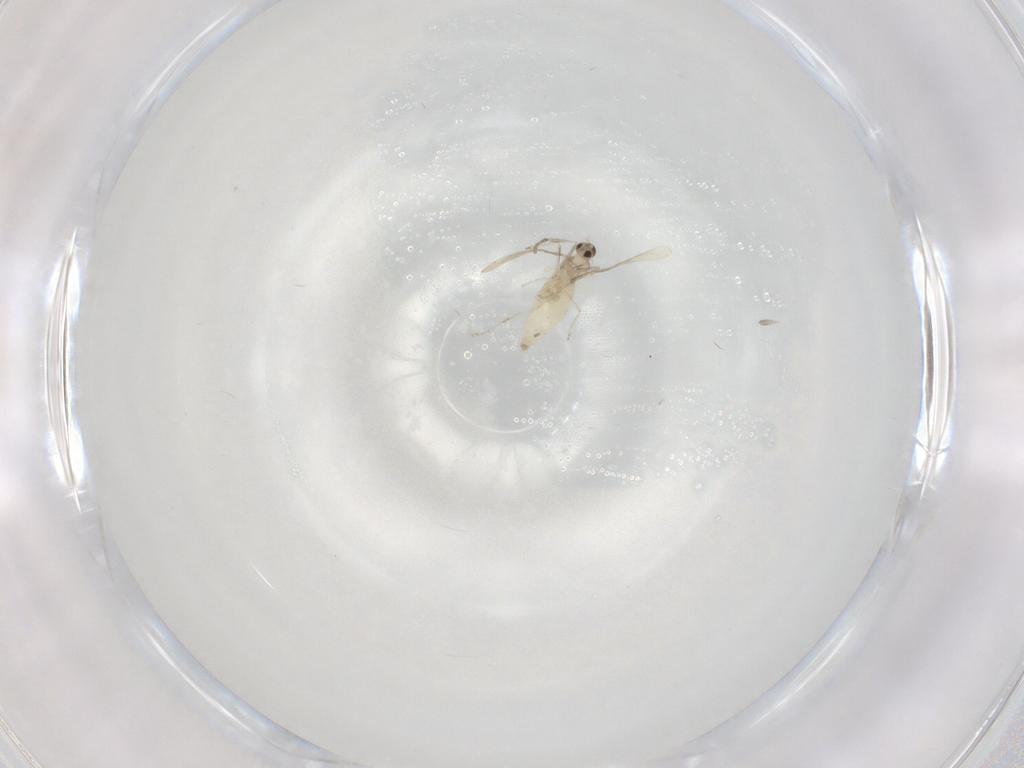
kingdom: Animalia
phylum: Arthropoda
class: Insecta
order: Diptera
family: Cecidomyiidae
